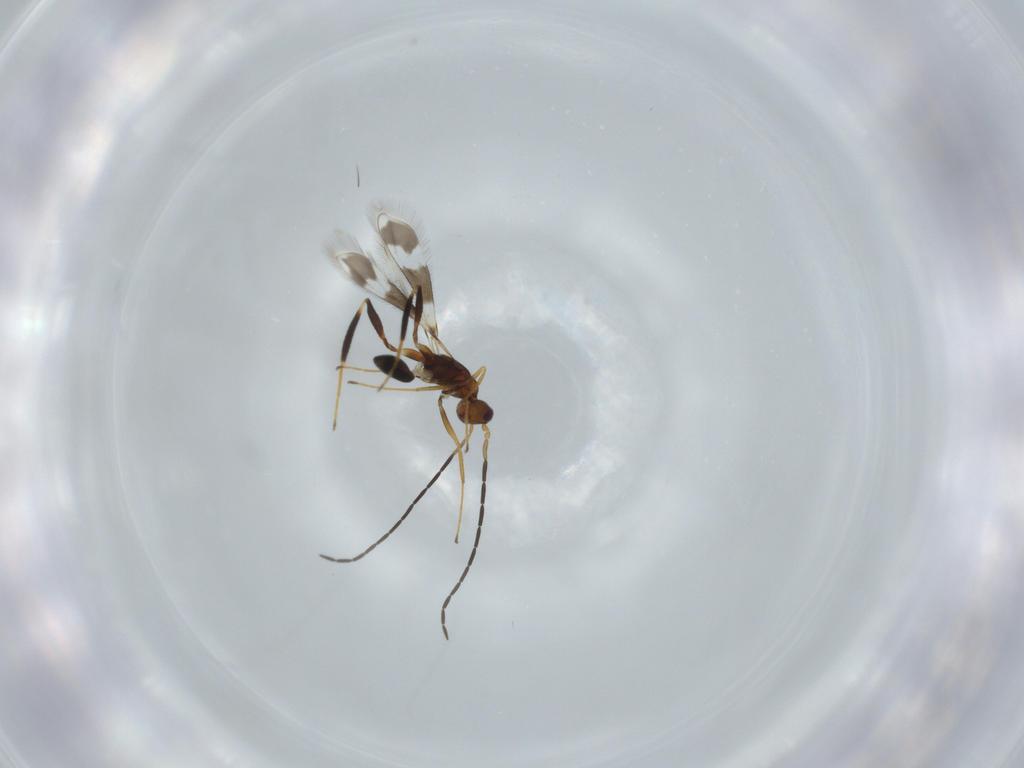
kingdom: Animalia
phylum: Arthropoda
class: Insecta
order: Hymenoptera
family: Mymaridae
